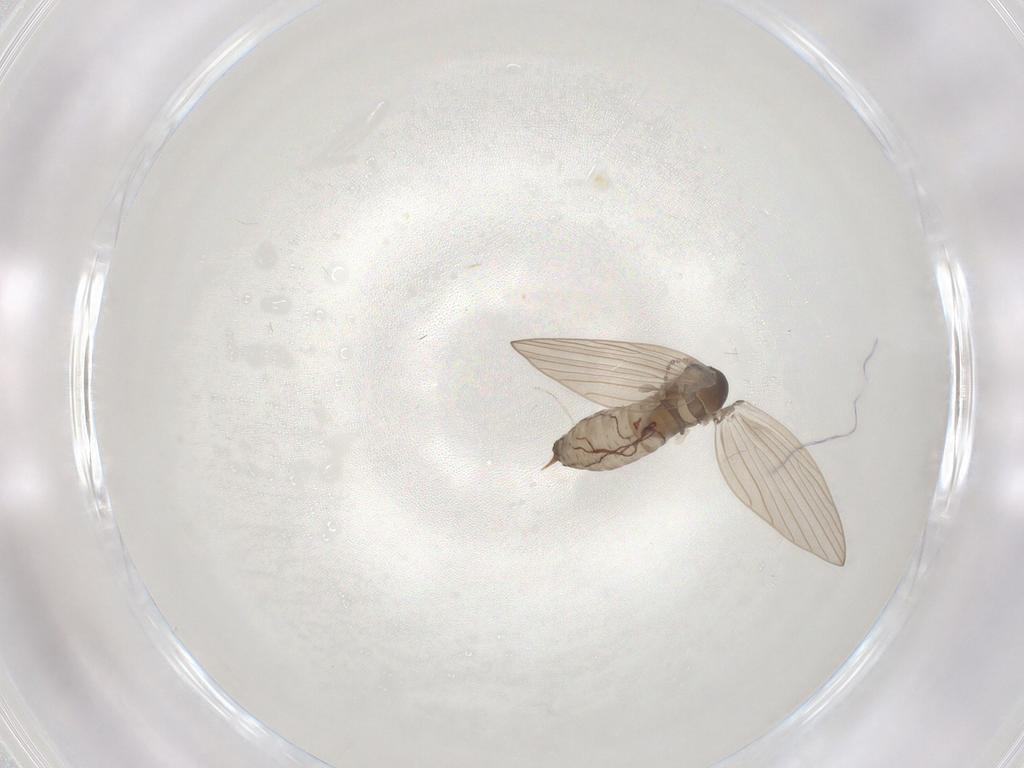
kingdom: Animalia
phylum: Arthropoda
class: Insecta
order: Diptera
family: Psychodidae
